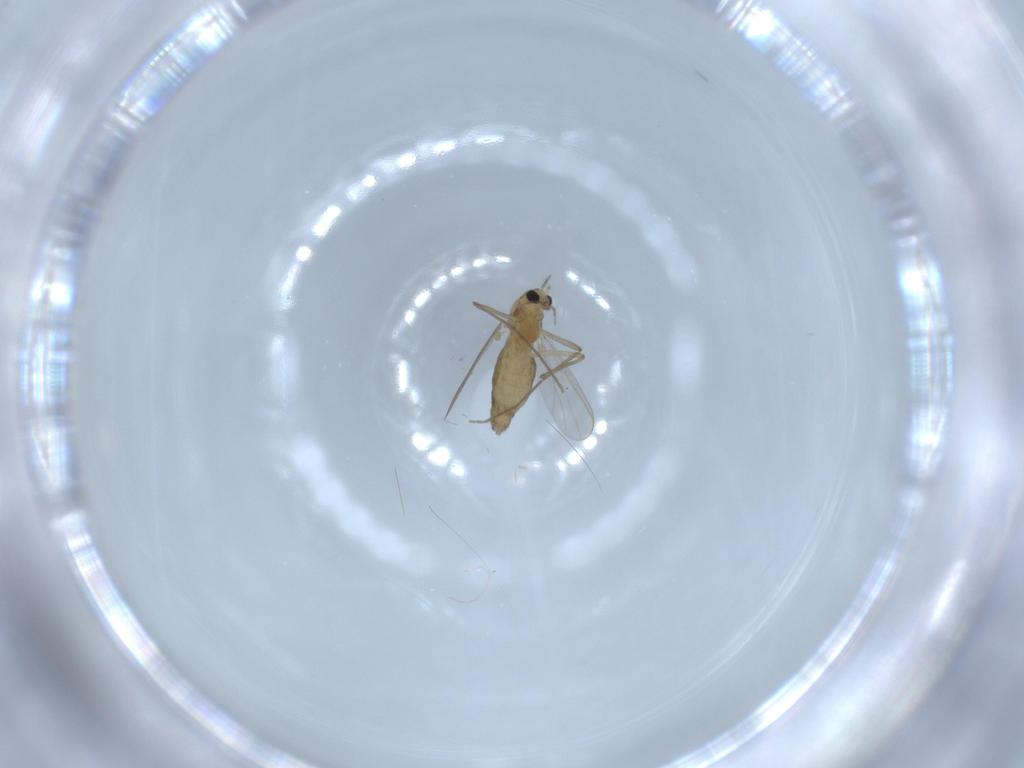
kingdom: Animalia
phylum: Arthropoda
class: Insecta
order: Diptera
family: Chironomidae
